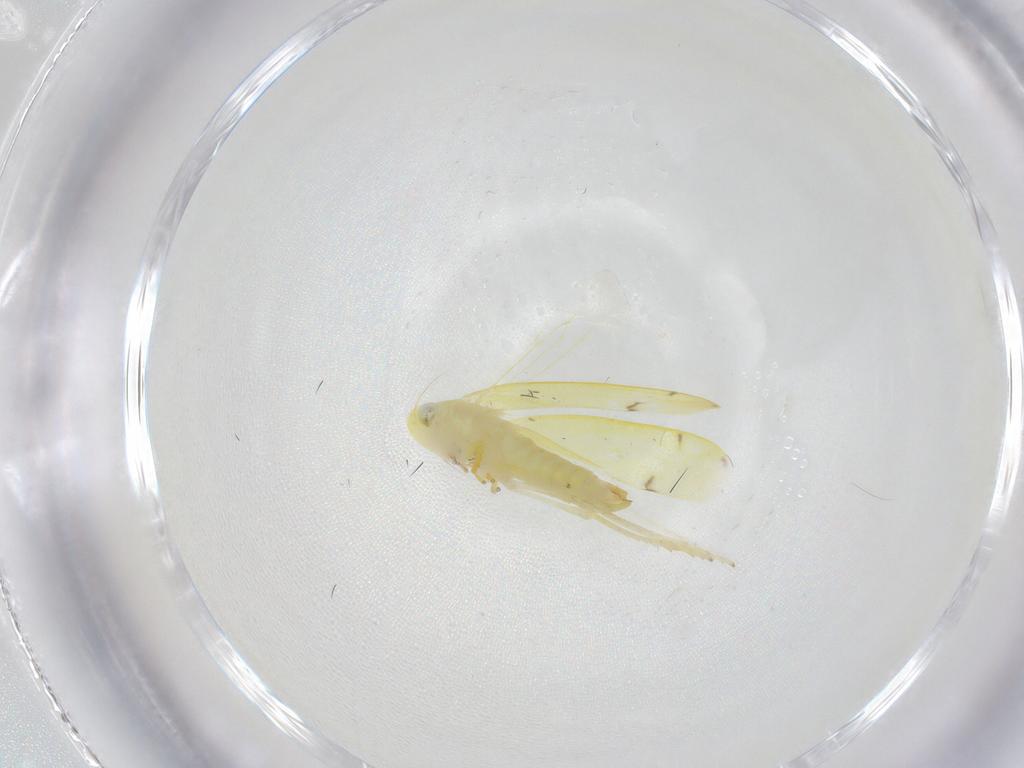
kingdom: Animalia
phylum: Arthropoda
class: Insecta
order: Hemiptera
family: Cicadellidae
